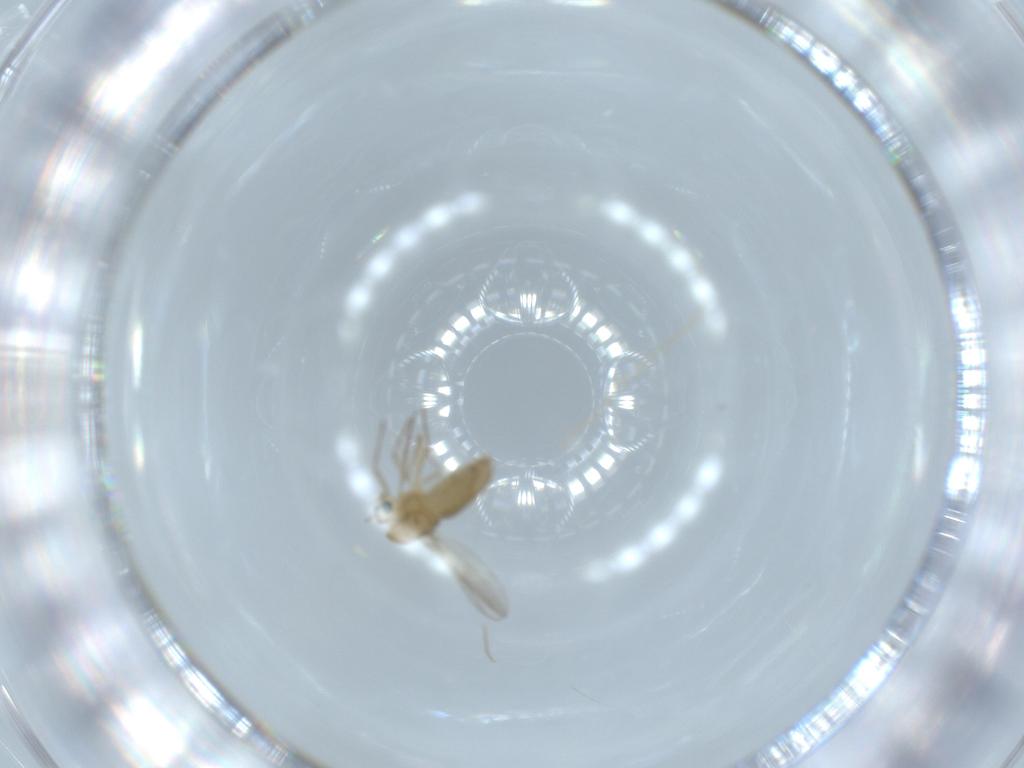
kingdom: Animalia
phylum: Arthropoda
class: Insecta
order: Diptera
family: Chironomidae
